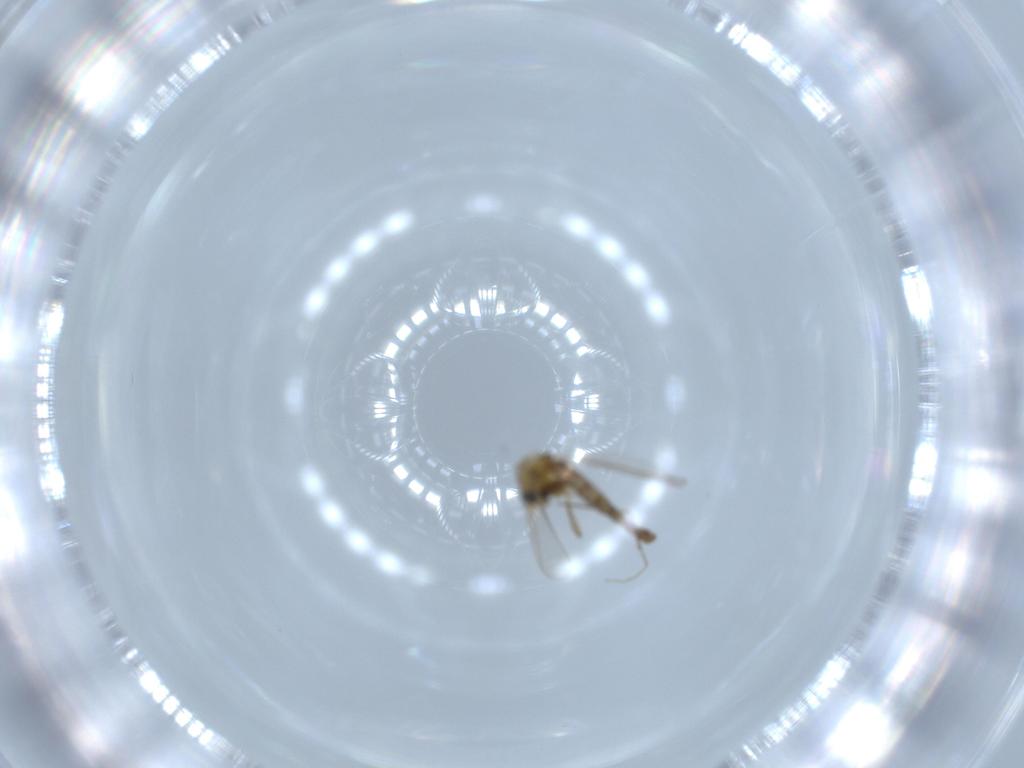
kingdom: Animalia
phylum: Arthropoda
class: Insecta
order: Diptera
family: Chironomidae
